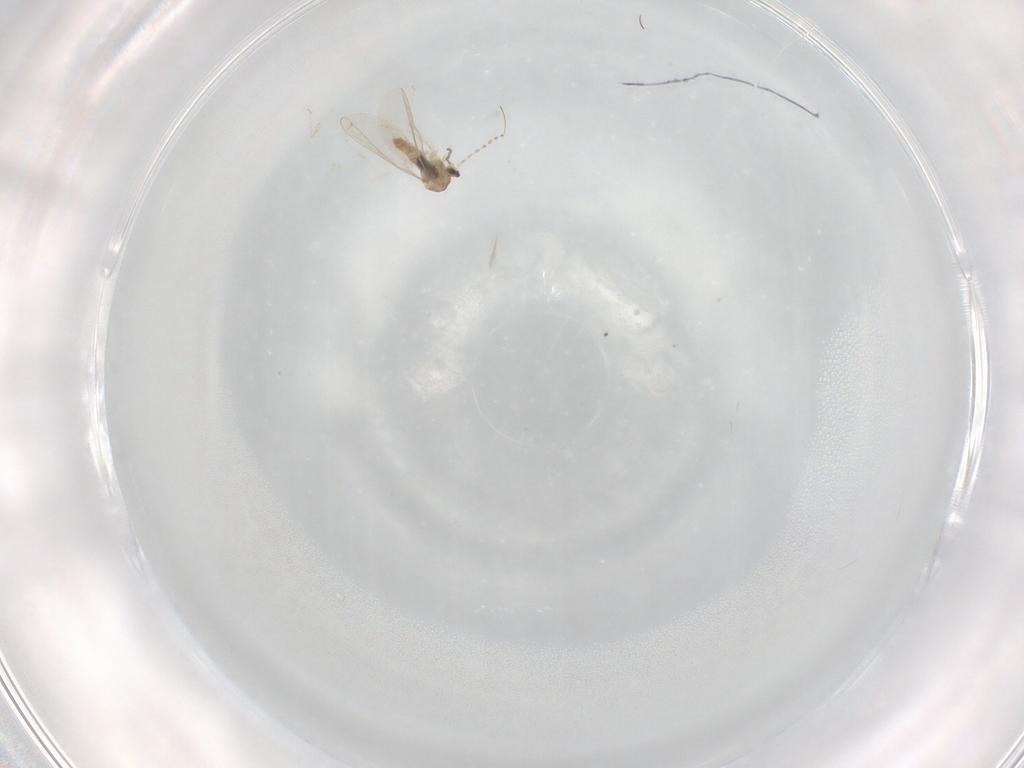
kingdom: Animalia
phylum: Arthropoda
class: Insecta
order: Diptera
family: Cecidomyiidae
